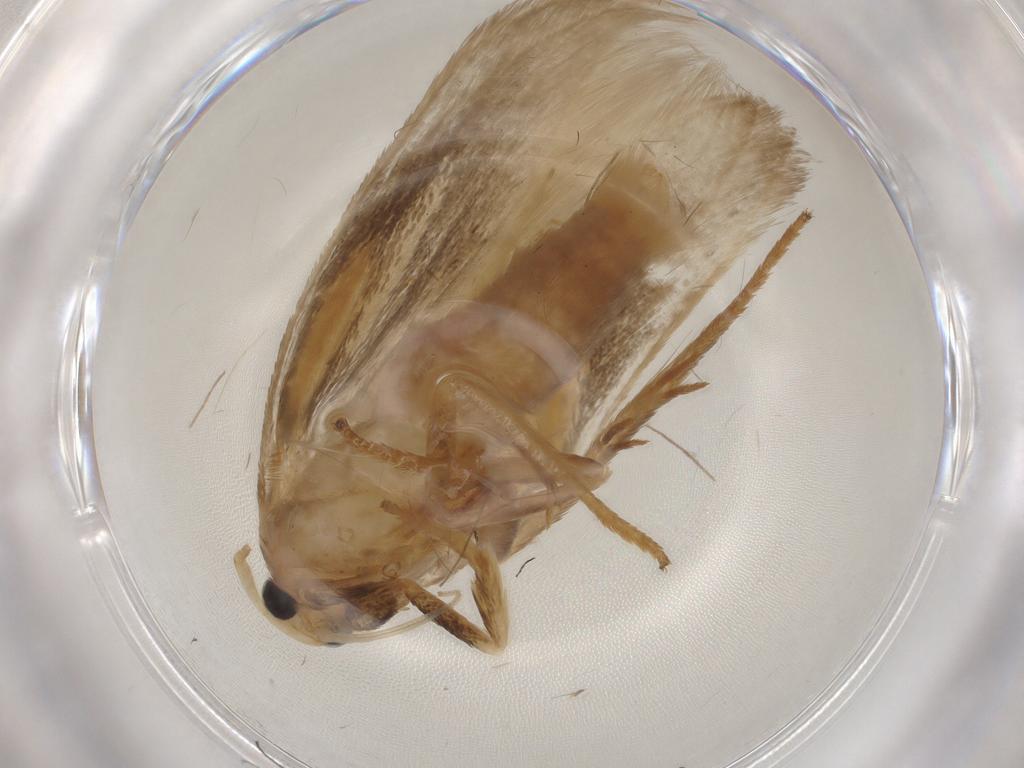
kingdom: Animalia
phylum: Arthropoda
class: Insecta
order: Lepidoptera
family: Geometridae
